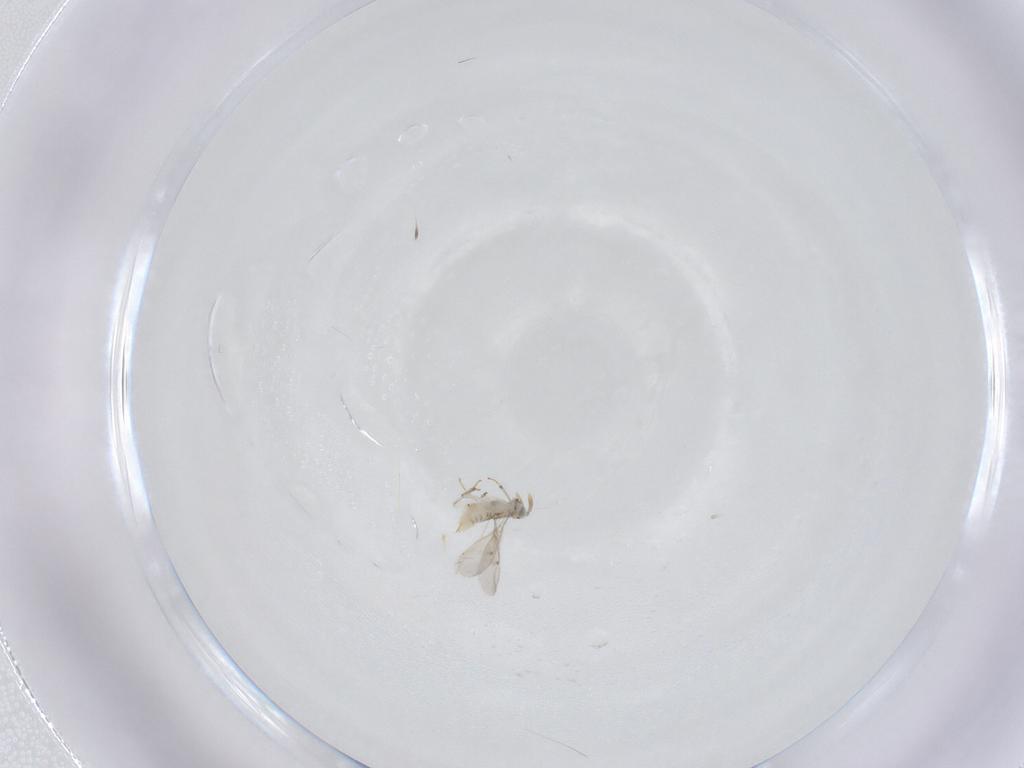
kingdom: Animalia
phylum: Arthropoda
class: Insecta
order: Hymenoptera
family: Aphelinidae
